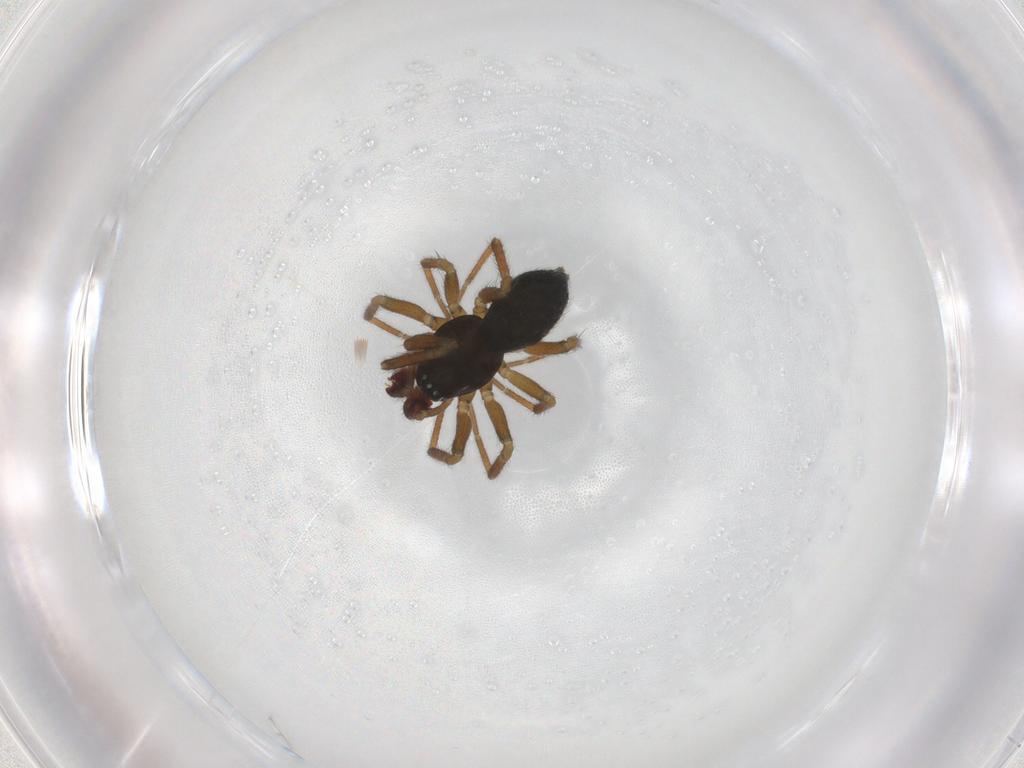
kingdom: Animalia
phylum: Arthropoda
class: Arachnida
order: Araneae
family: Linyphiidae
